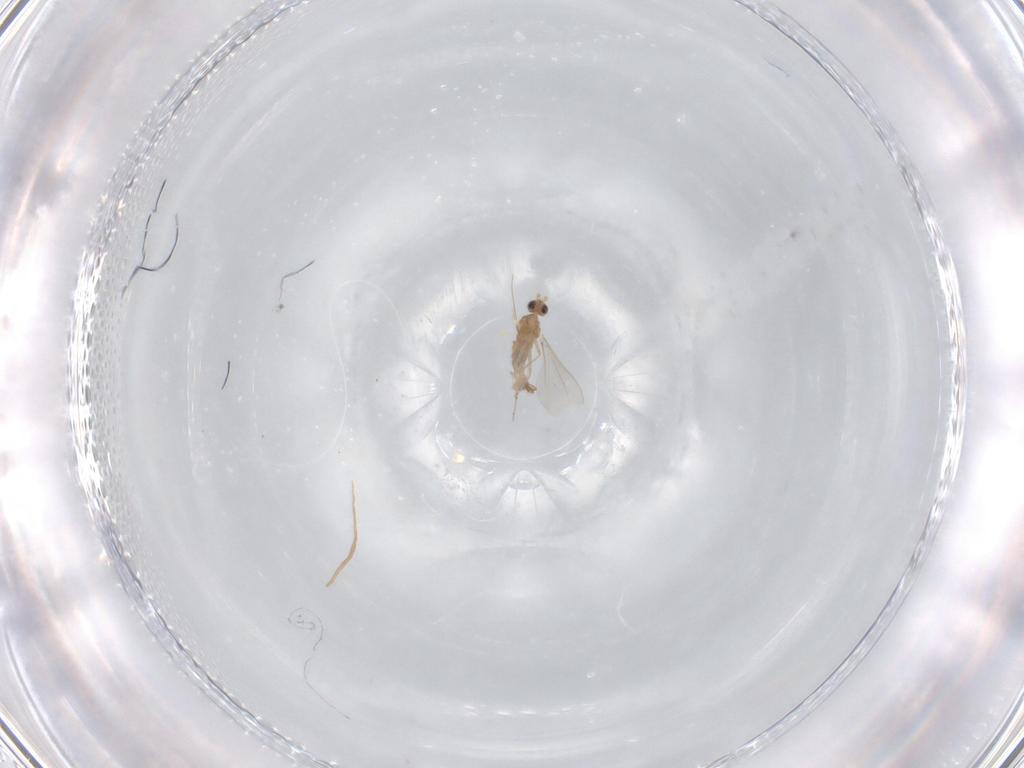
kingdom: Animalia
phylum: Arthropoda
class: Insecta
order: Diptera
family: Cecidomyiidae
